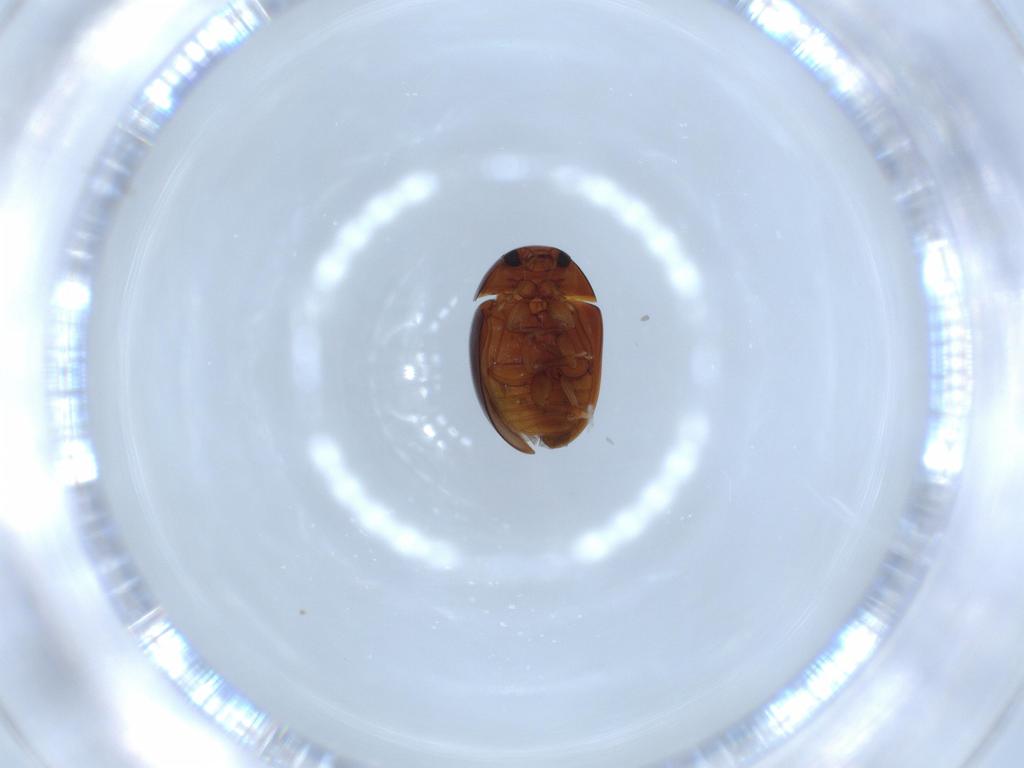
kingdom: Animalia
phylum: Arthropoda
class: Insecta
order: Coleoptera
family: Phalacridae
